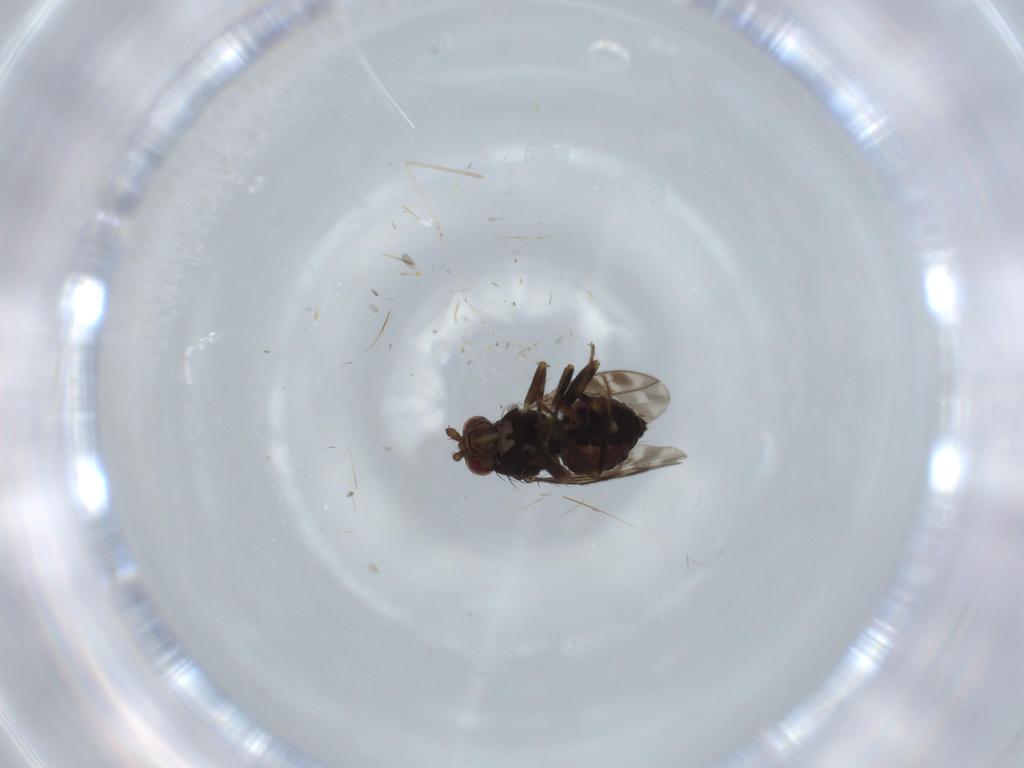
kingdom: Animalia
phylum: Arthropoda
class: Insecta
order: Diptera
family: Sphaeroceridae
